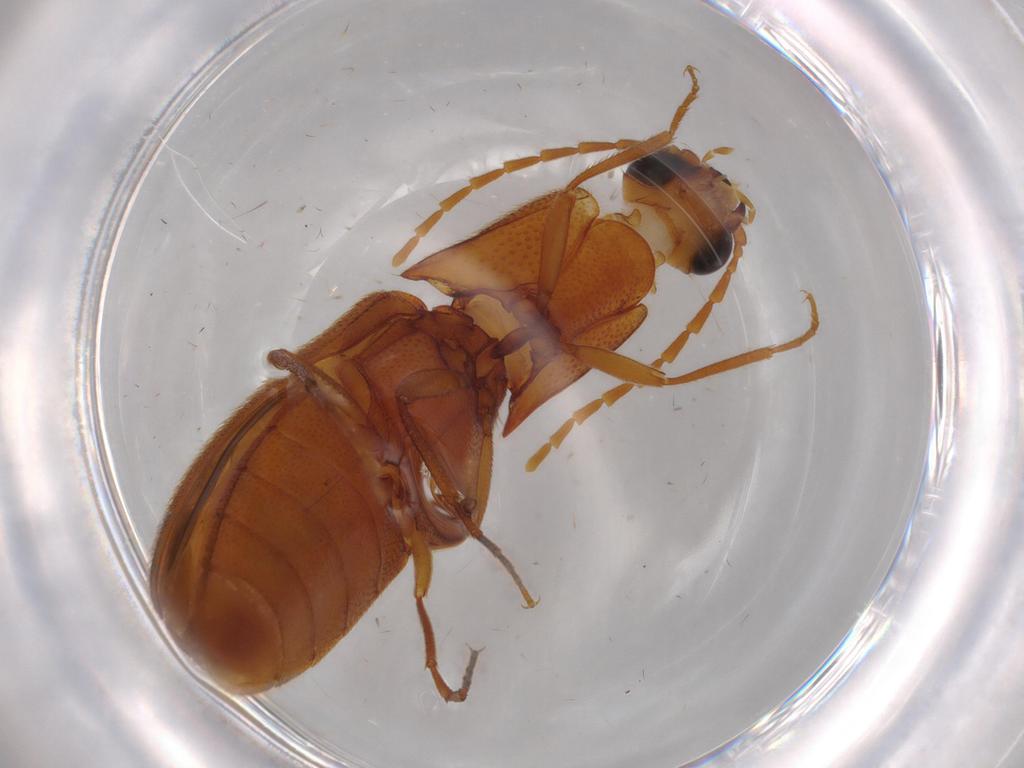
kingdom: Animalia
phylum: Arthropoda
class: Insecta
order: Coleoptera
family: Elateridae
